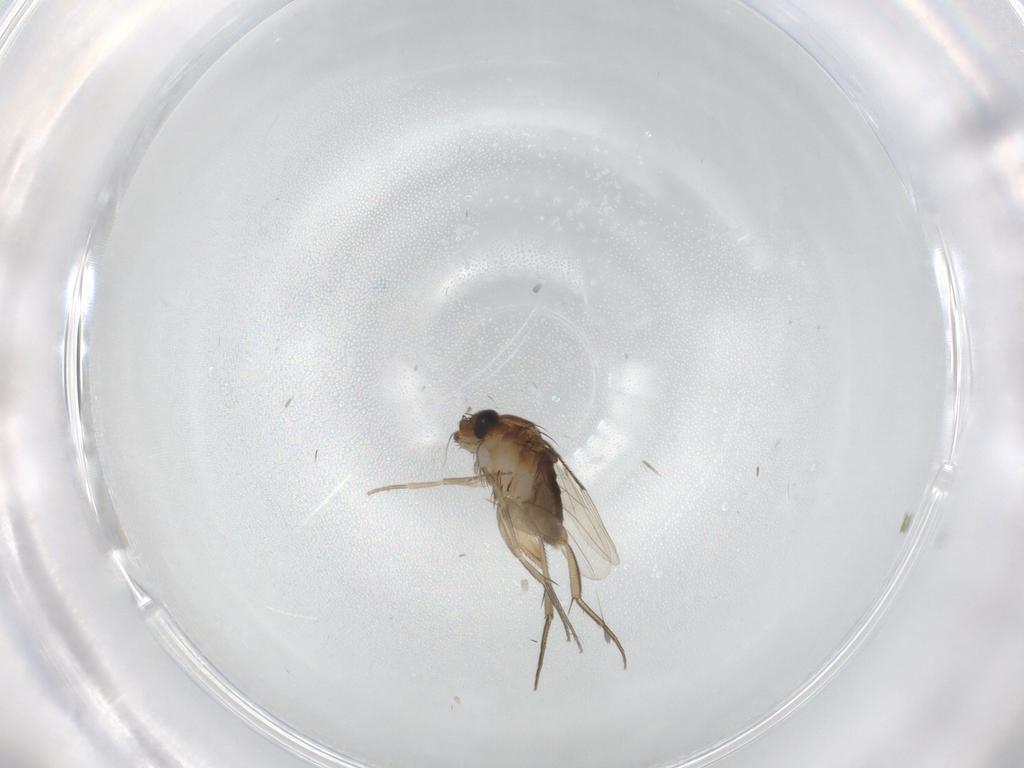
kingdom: Animalia
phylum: Arthropoda
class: Insecta
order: Diptera
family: Phoridae
